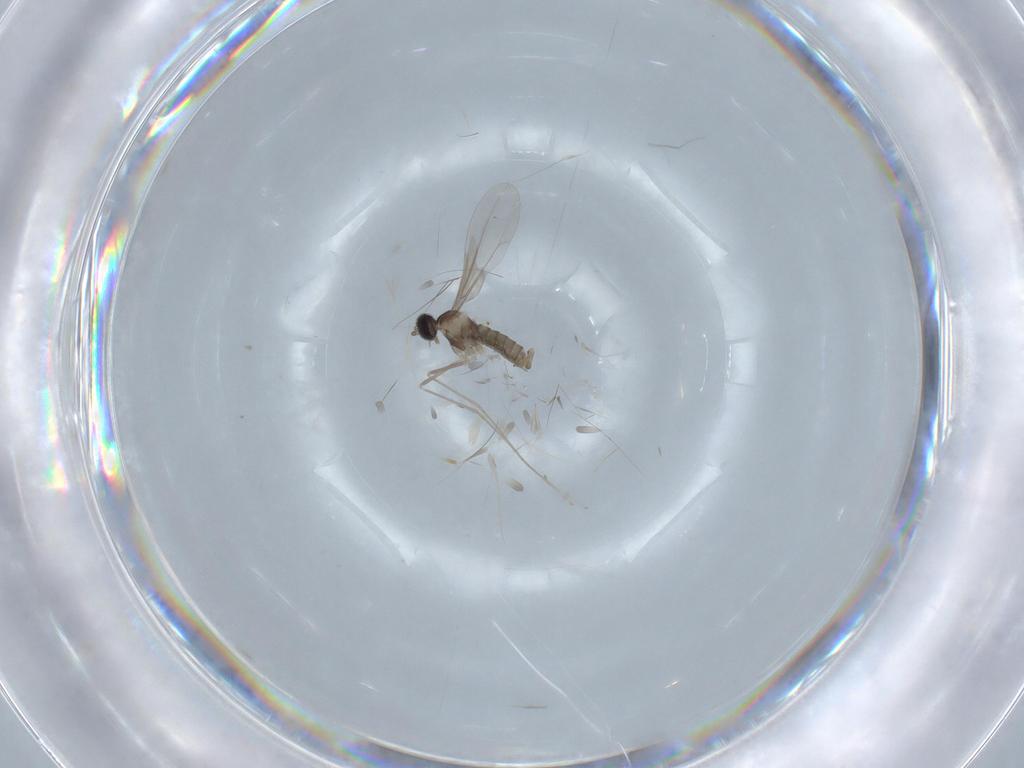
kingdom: Animalia
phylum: Arthropoda
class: Insecta
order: Diptera
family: Cecidomyiidae
